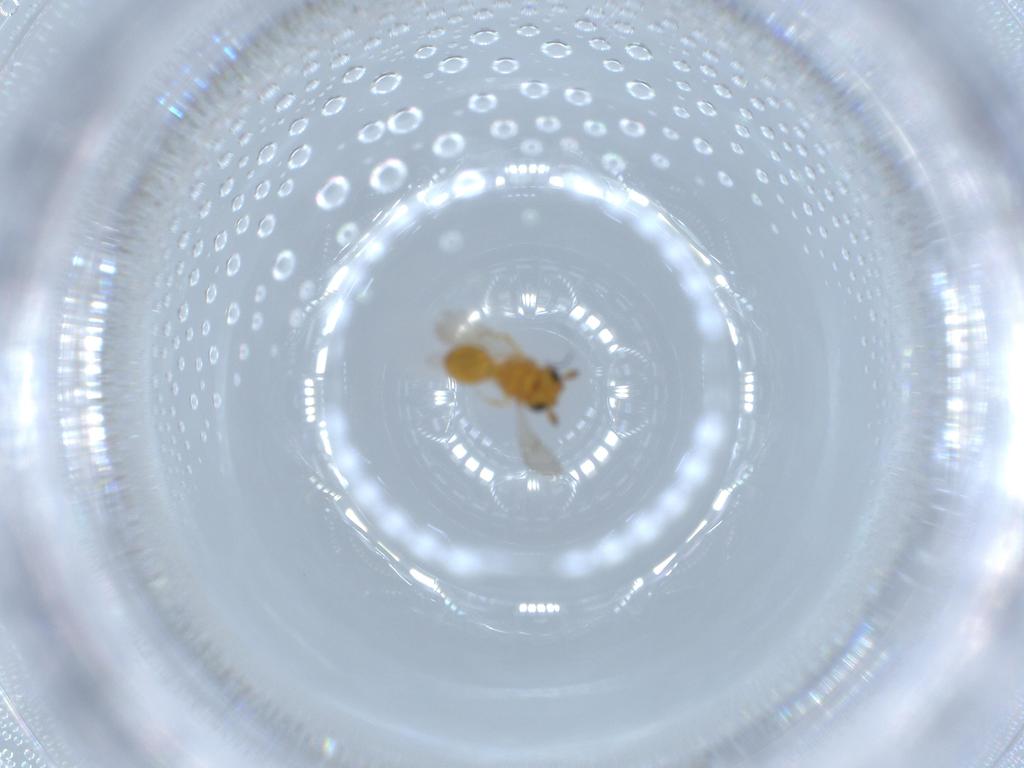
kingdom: Animalia
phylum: Arthropoda
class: Insecta
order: Hymenoptera
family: Scelionidae
